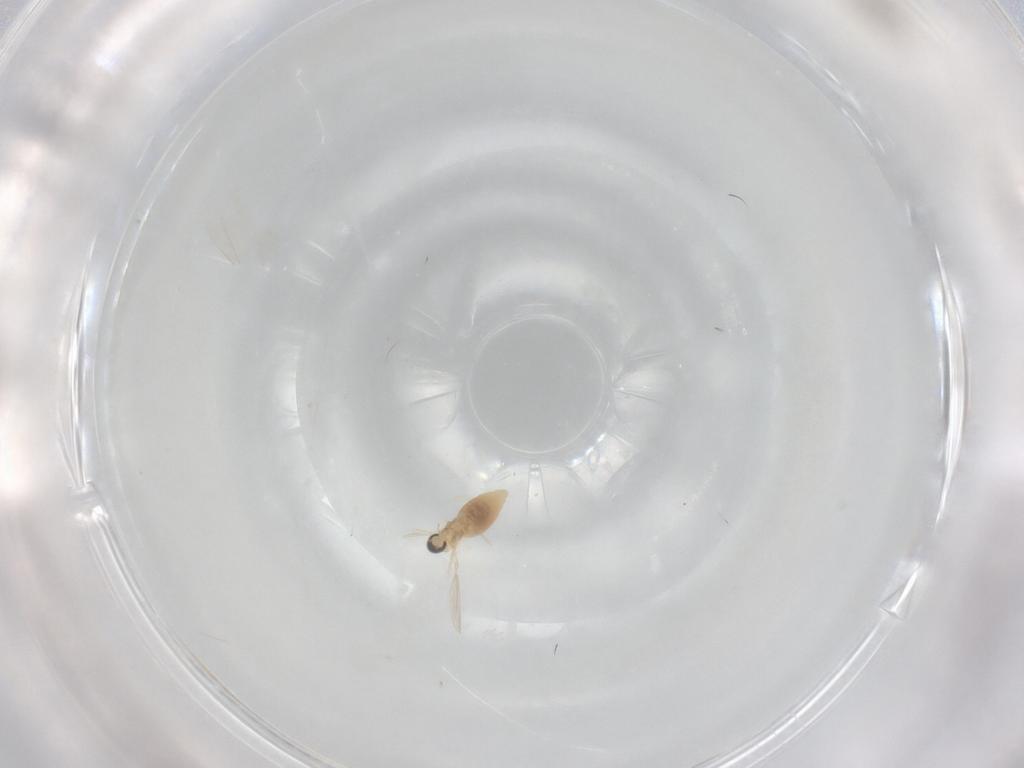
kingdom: Animalia
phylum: Arthropoda
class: Insecta
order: Diptera
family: Cecidomyiidae
